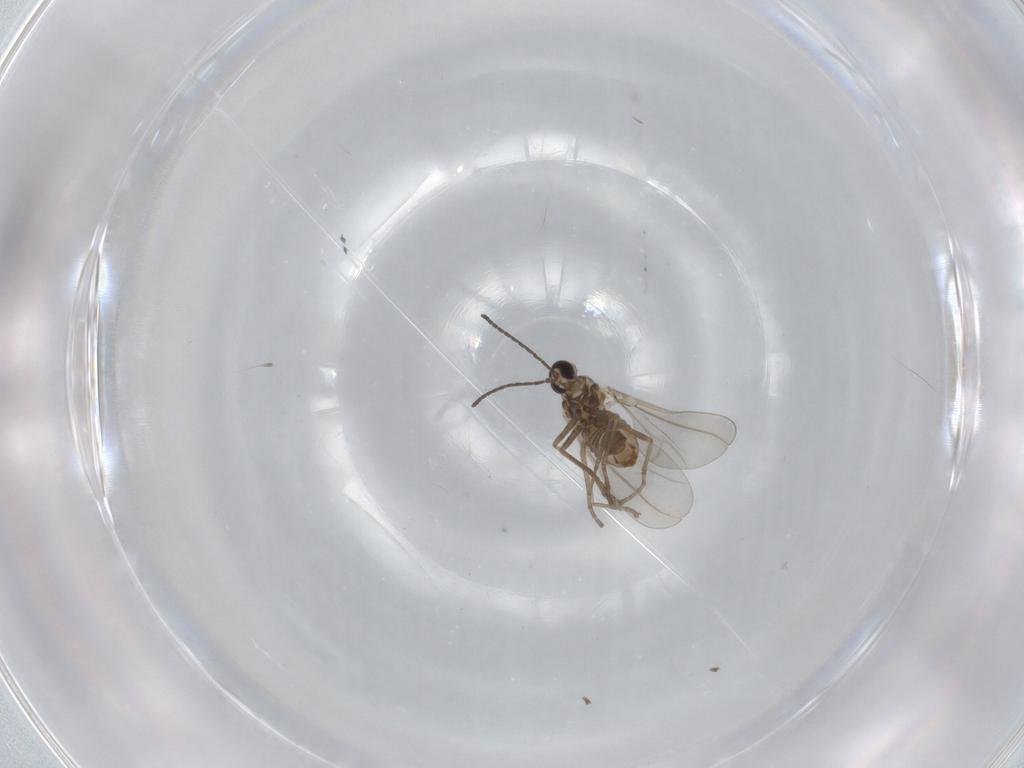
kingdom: Animalia
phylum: Arthropoda
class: Insecta
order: Diptera
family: Cecidomyiidae
